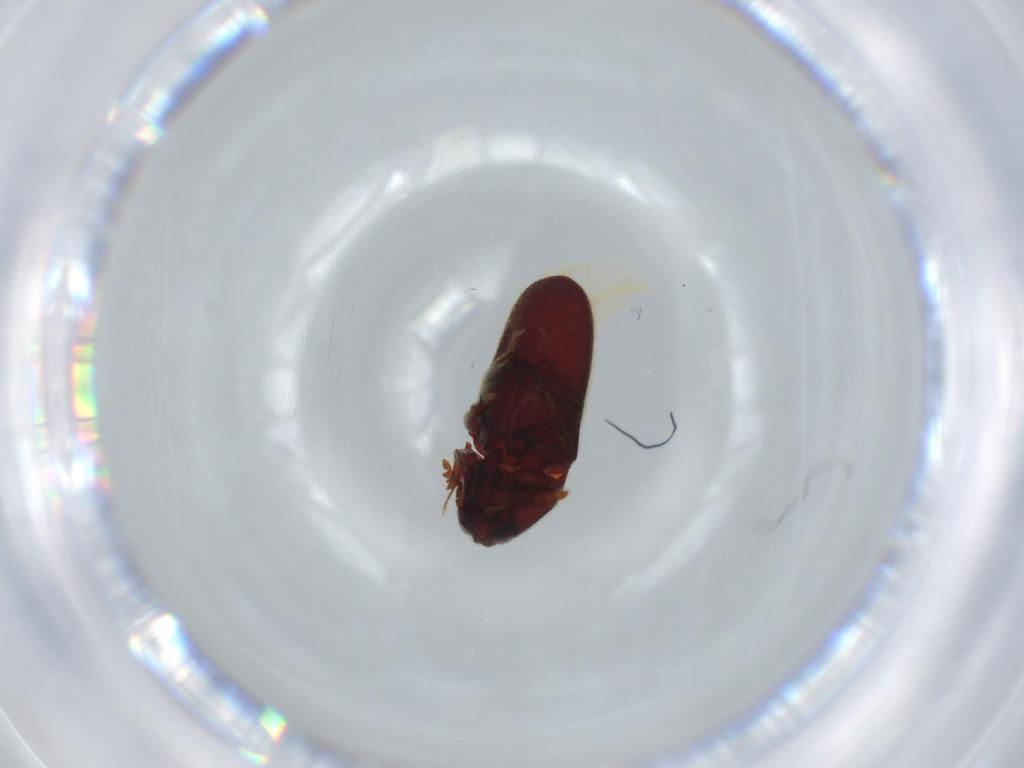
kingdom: Animalia
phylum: Arthropoda
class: Insecta
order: Coleoptera
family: Throscidae
